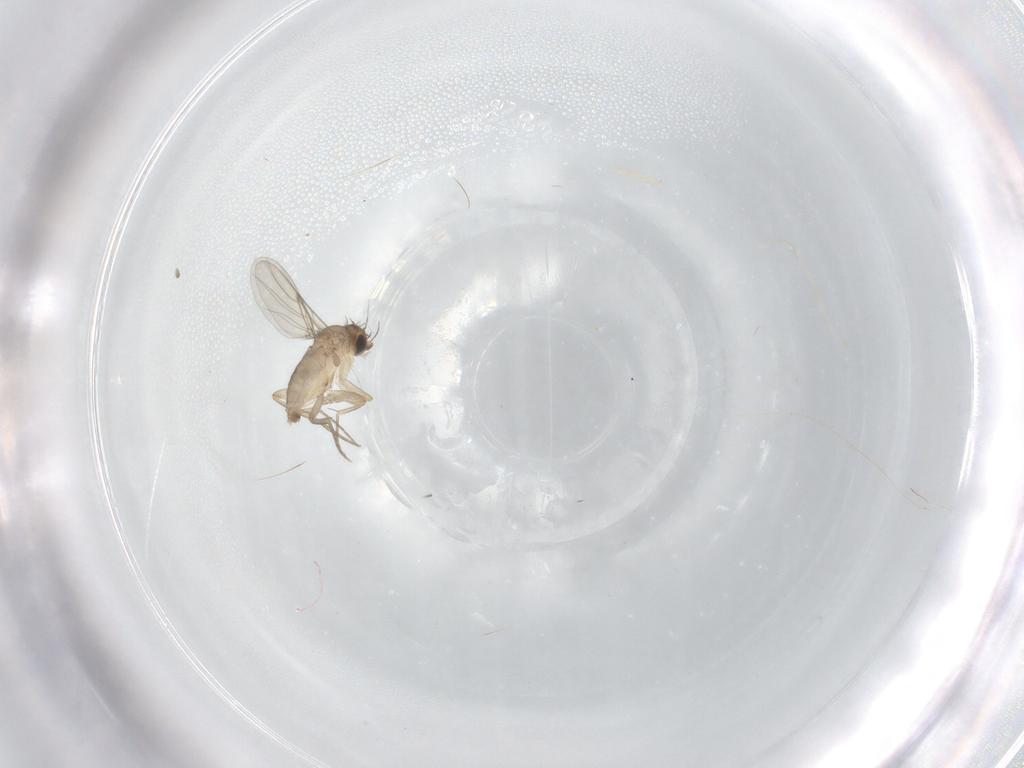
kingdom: Animalia
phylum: Arthropoda
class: Insecta
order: Diptera
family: Phoridae
